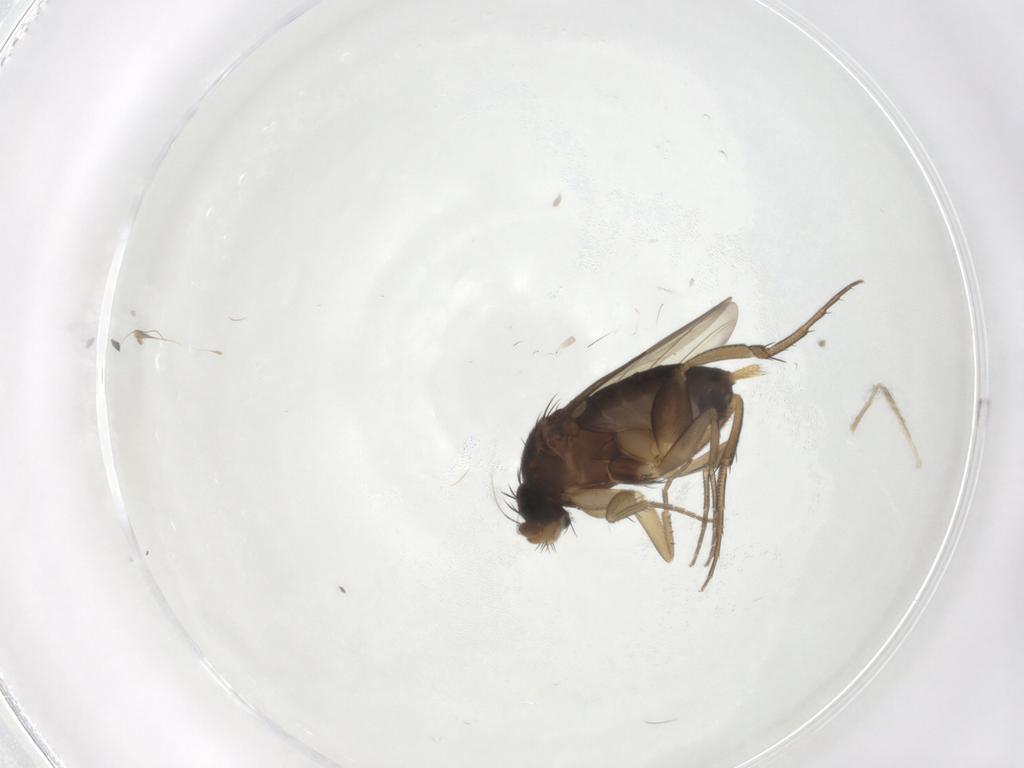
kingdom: Animalia
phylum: Arthropoda
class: Insecta
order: Diptera
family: Phoridae
